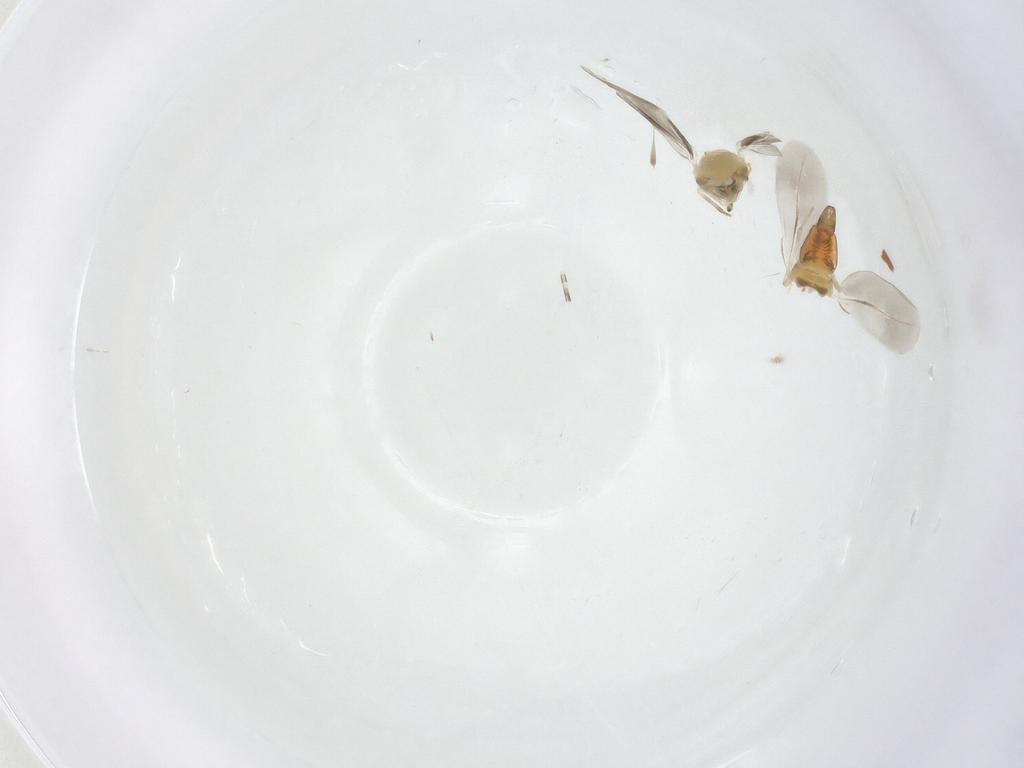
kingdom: Animalia
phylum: Arthropoda
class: Insecta
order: Hemiptera
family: Aleyrodidae
